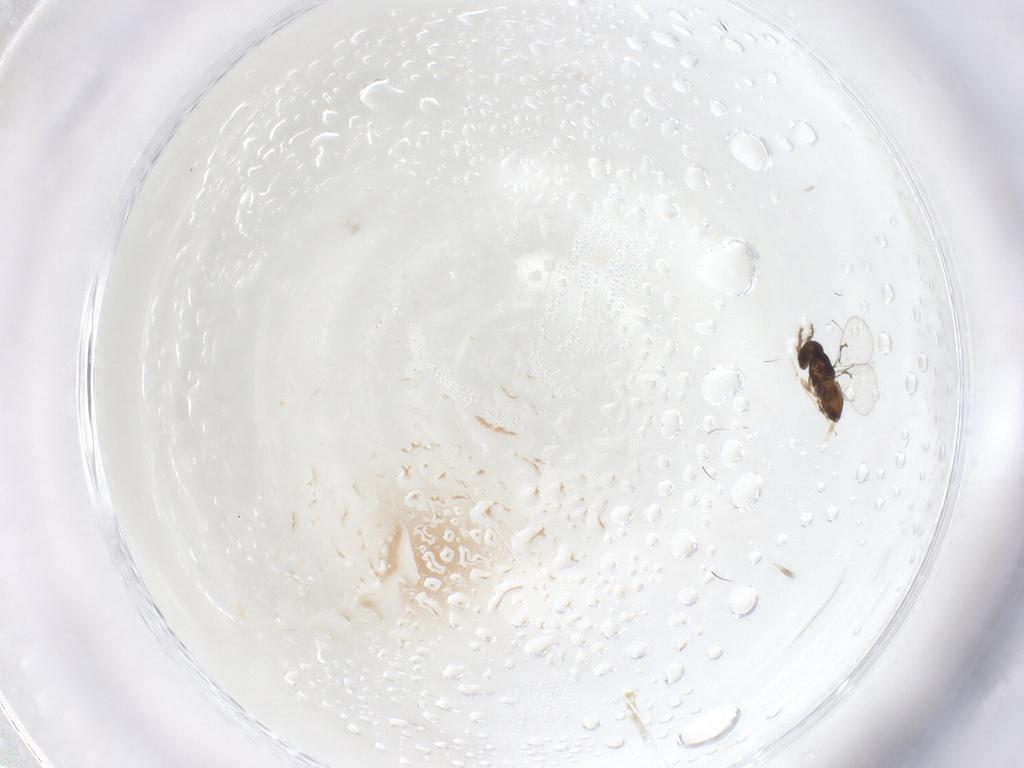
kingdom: Animalia
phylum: Arthropoda
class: Insecta
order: Hymenoptera
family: Trichogrammatidae
